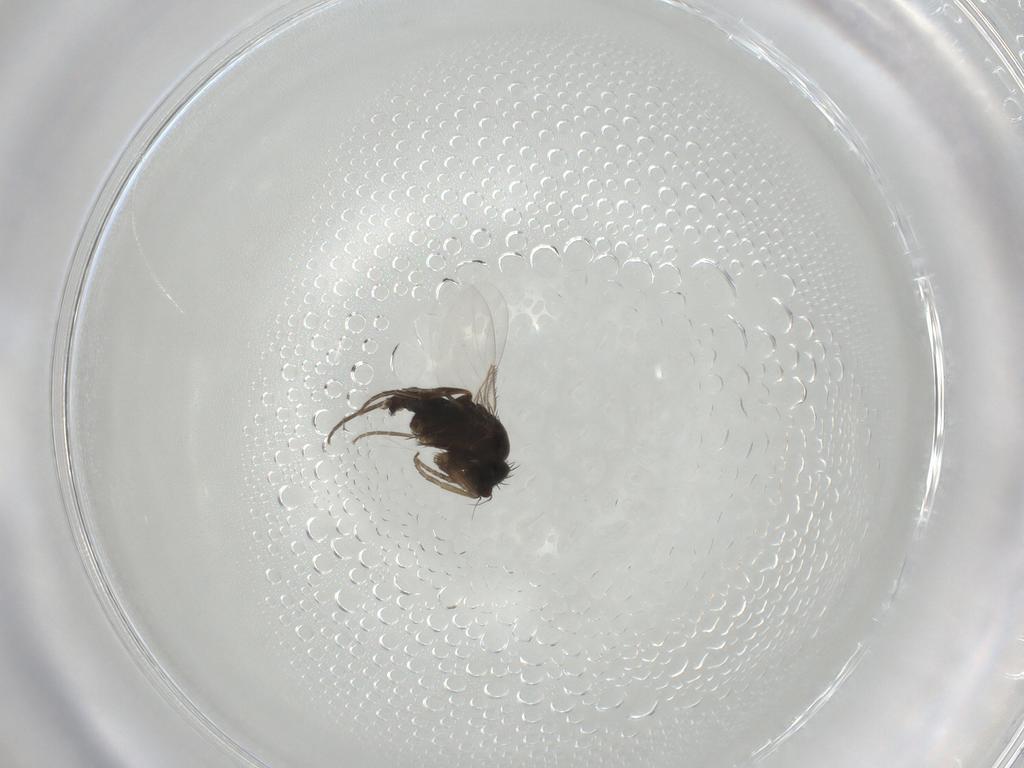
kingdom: Animalia
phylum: Arthropoda
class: Insecta
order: Diptera
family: Phoridae
